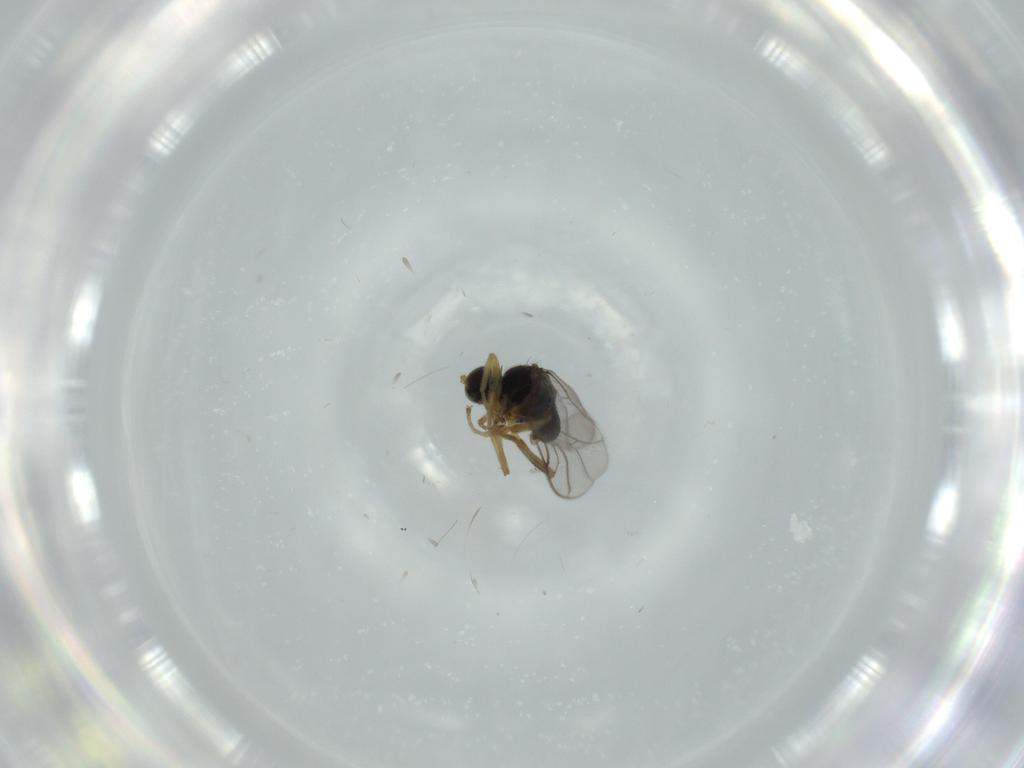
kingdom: Animalia
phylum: Arthropoda
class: Insecta
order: Diptera
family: Hybotidae
